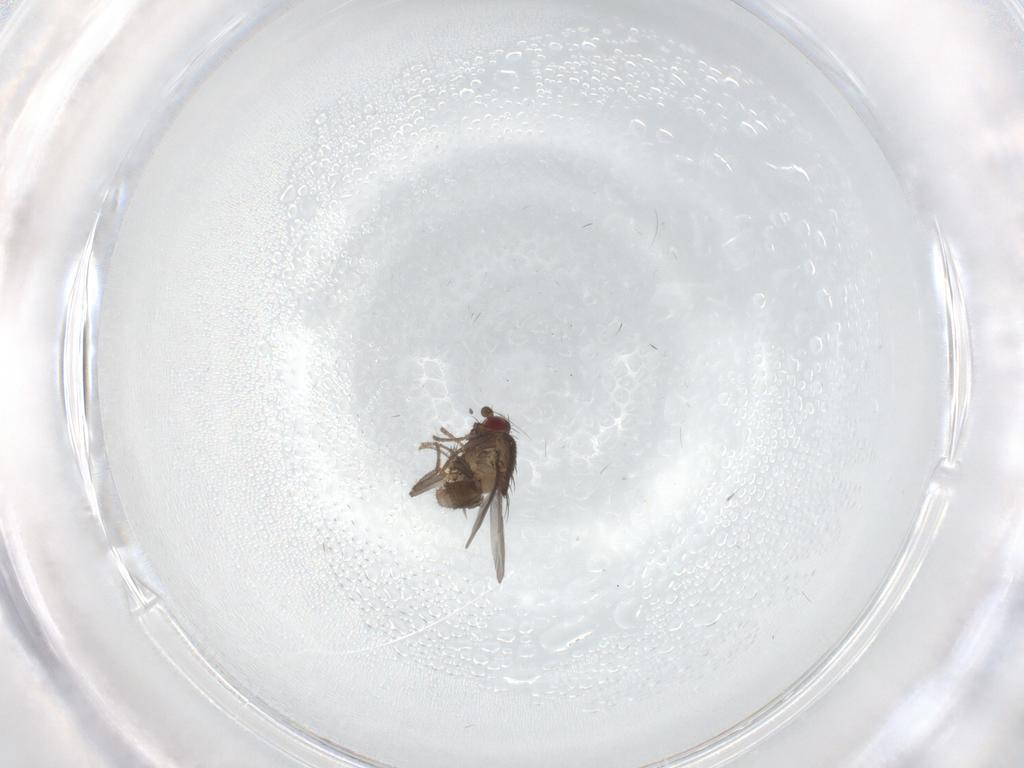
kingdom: Animalia
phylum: Arthropoda
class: Insecta
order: Diptera
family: Sphaeroceridae
